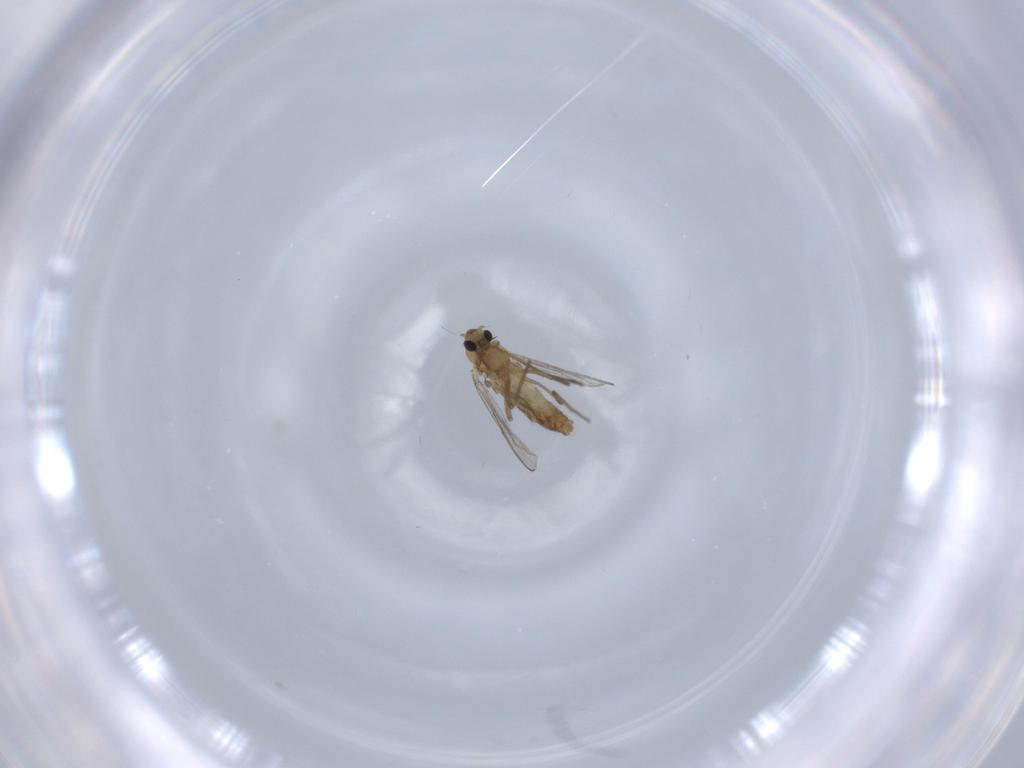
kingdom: Animalia
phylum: Arthropoda
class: Insecta
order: Diptera
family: Chironomidae
